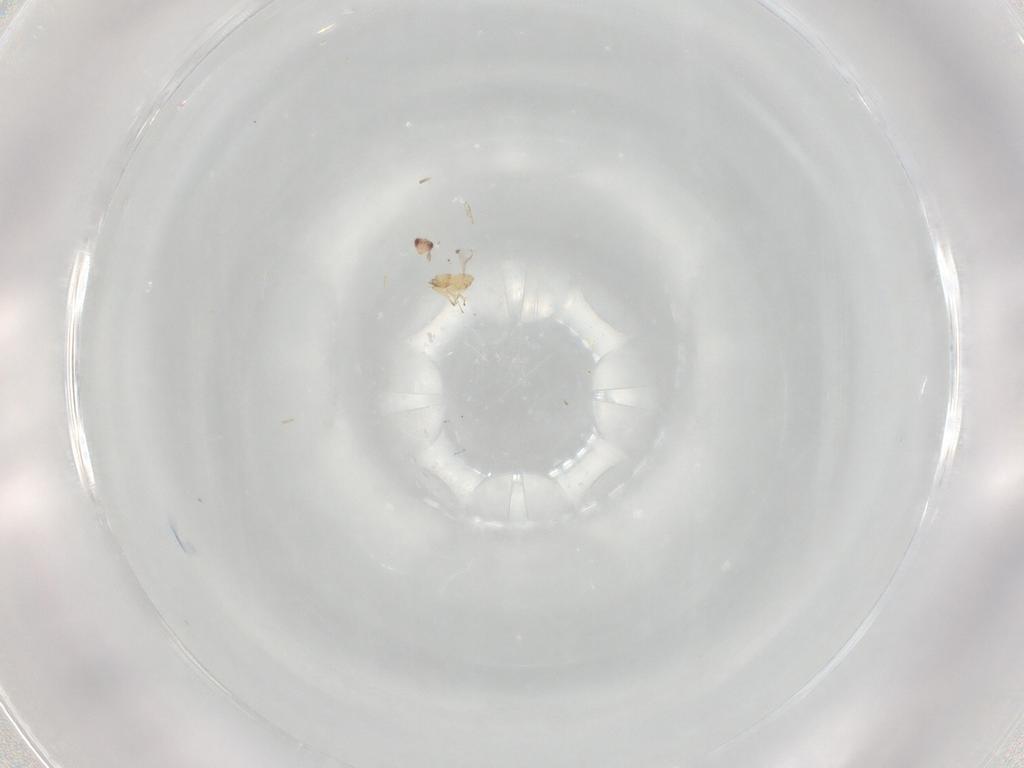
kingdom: Animalia
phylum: Arthropoda
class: Insecta
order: Hymenoptera
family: Trichogrammatidae
